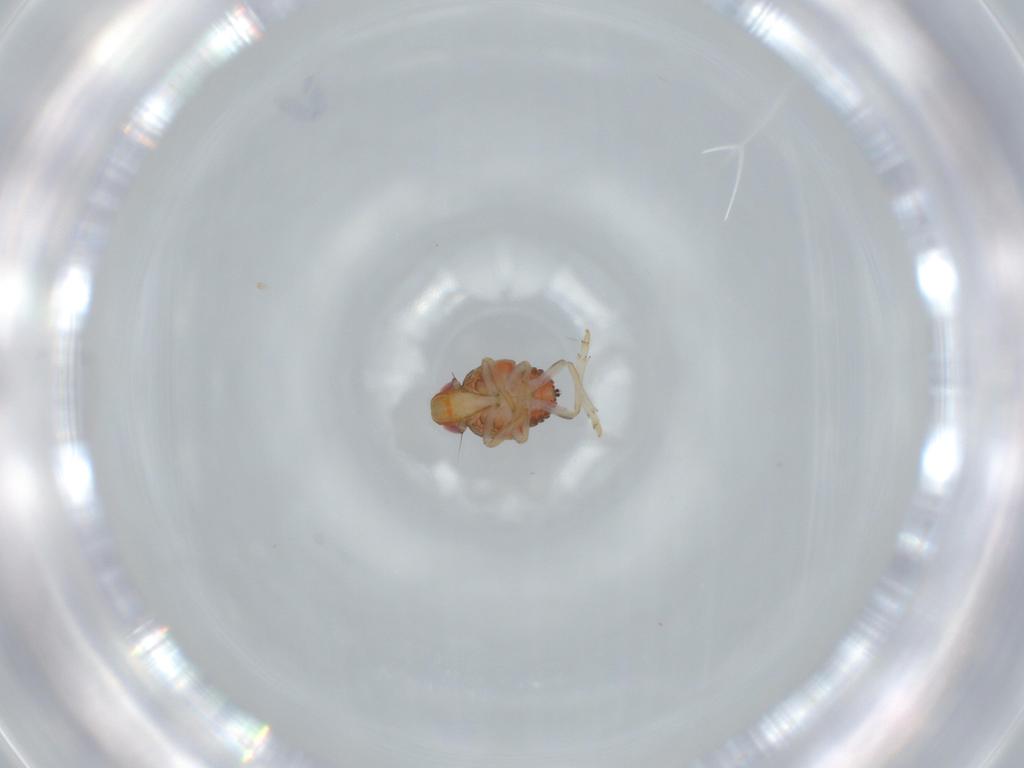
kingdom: Animalia
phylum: Arthropoda
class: Insecta
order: Hemiptera
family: Issidae
